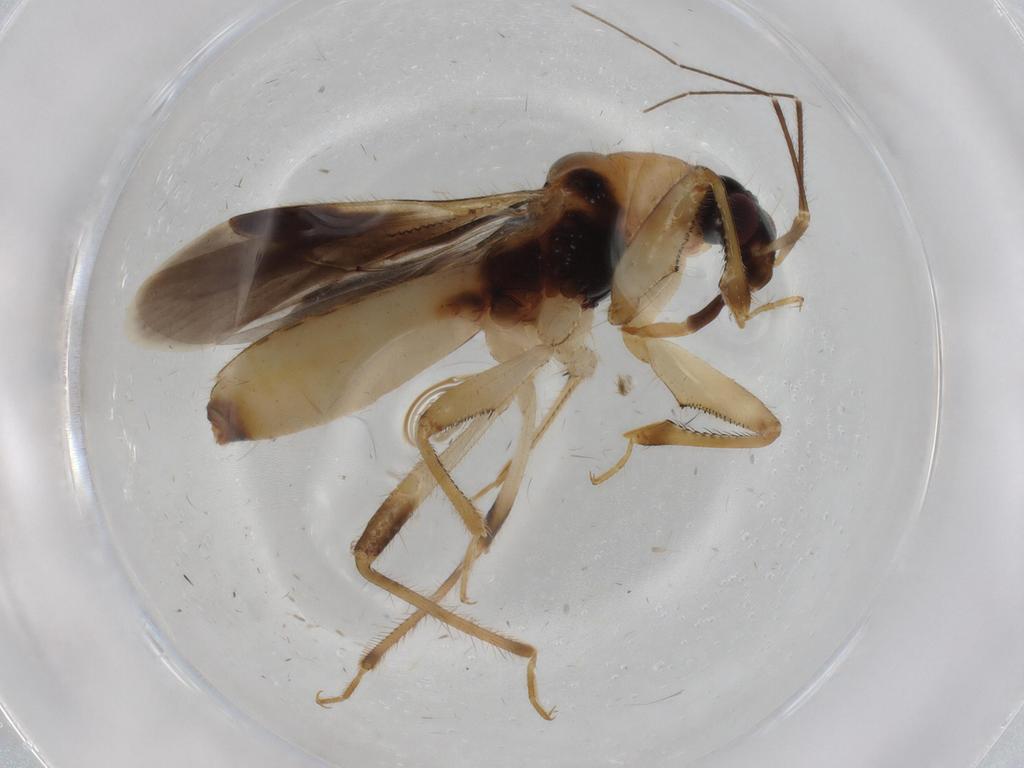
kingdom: Animalia
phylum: Arthropoda
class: Insecta
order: Hemiptera
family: Nabidae
